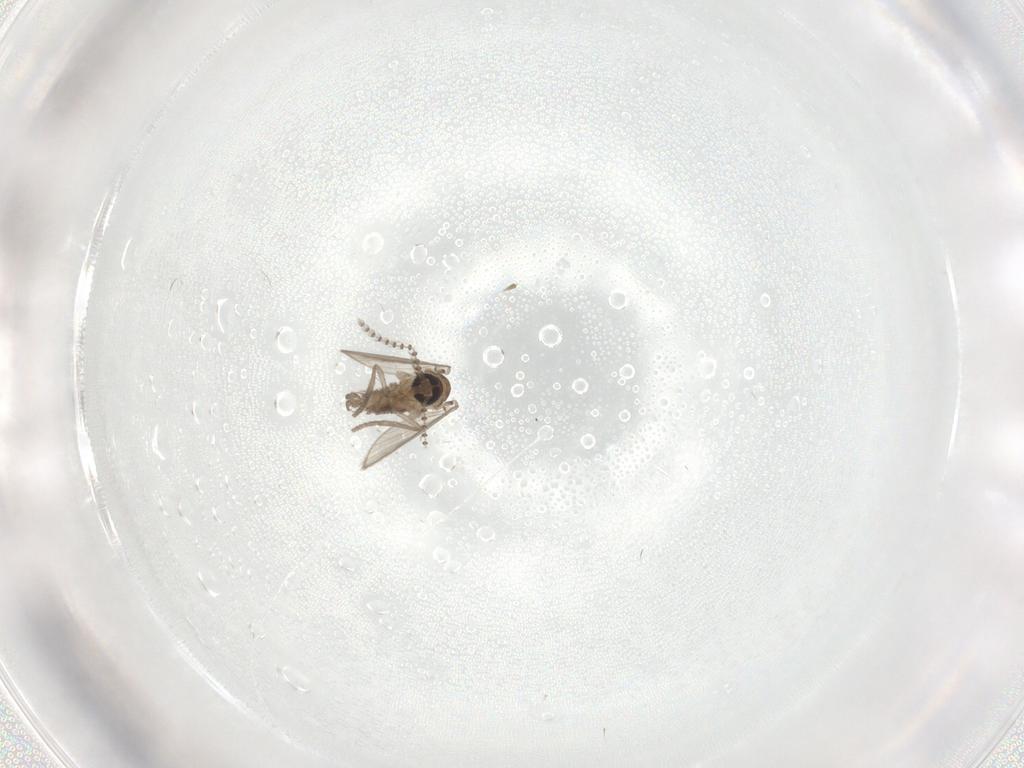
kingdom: Animalia
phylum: Arthropoda
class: Insecta
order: Diptera
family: Psychodidae
